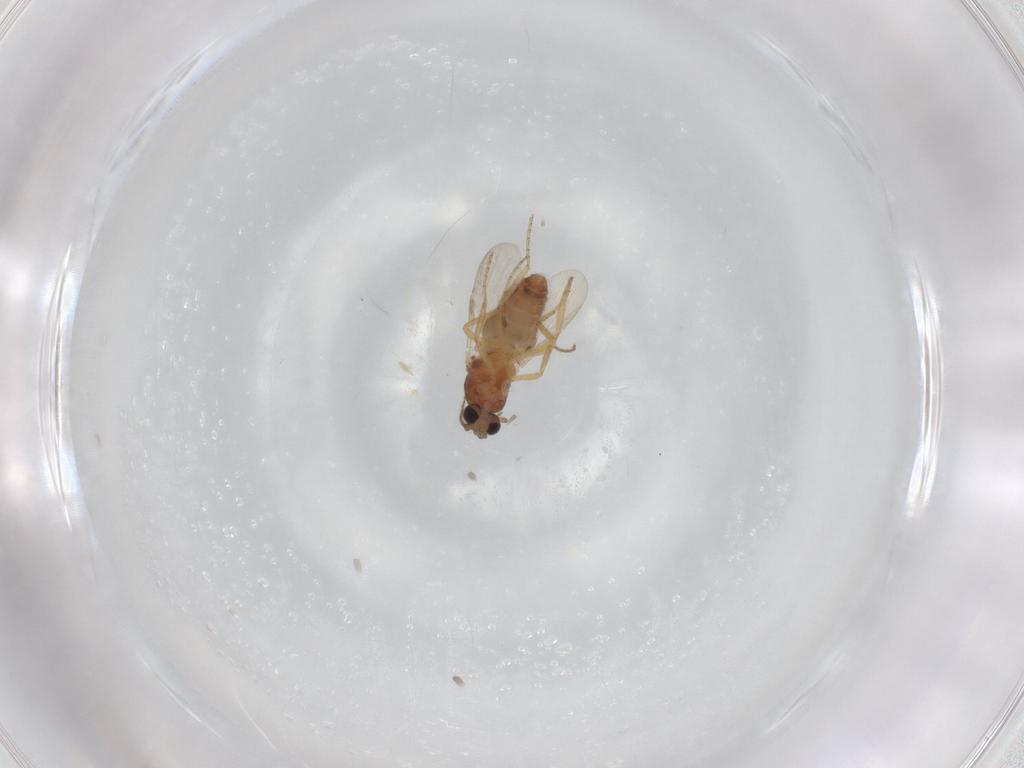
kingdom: Animalia
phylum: Arthropoda
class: Insecta
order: Diptera
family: Ceratopogonidae
